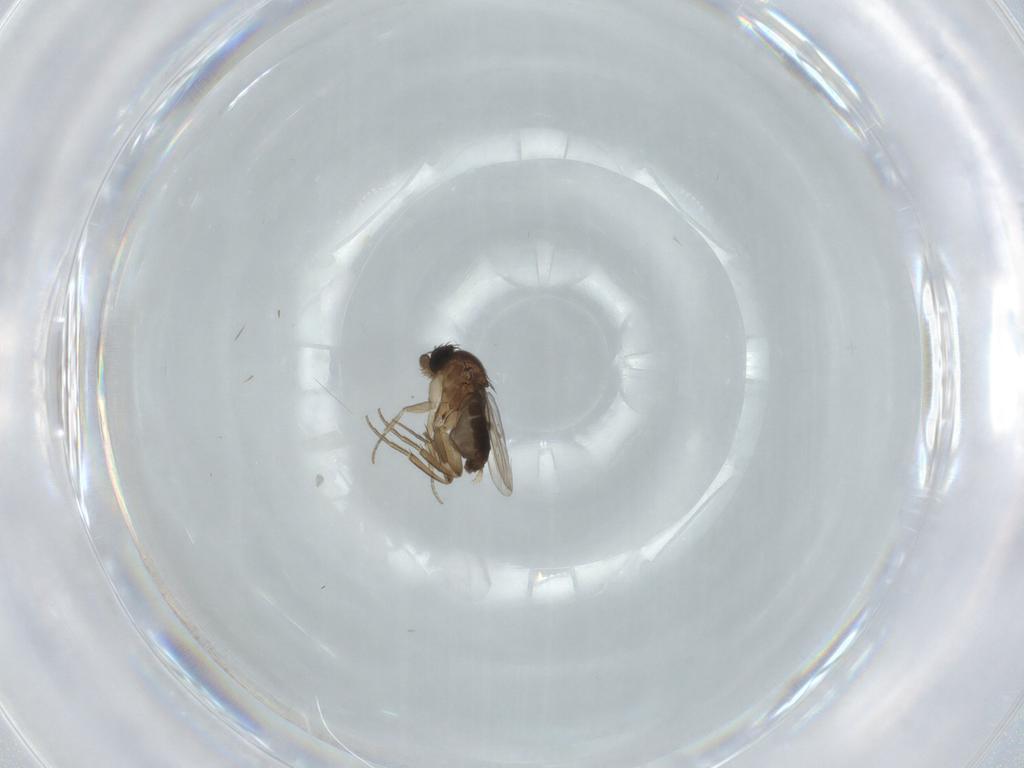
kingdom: Animalia
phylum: Arthropoda
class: Insecta
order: Diptera
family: Phoridae
